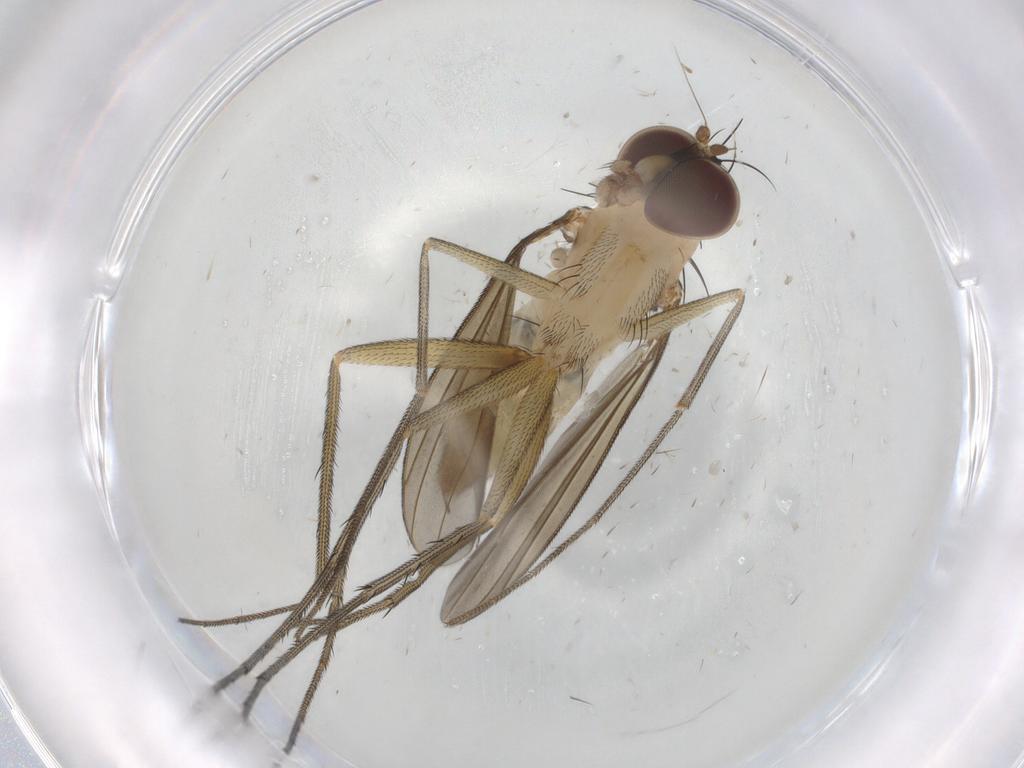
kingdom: Animalia
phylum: Arthropoda
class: Insecta
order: Diptera
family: Dolichopodidae
